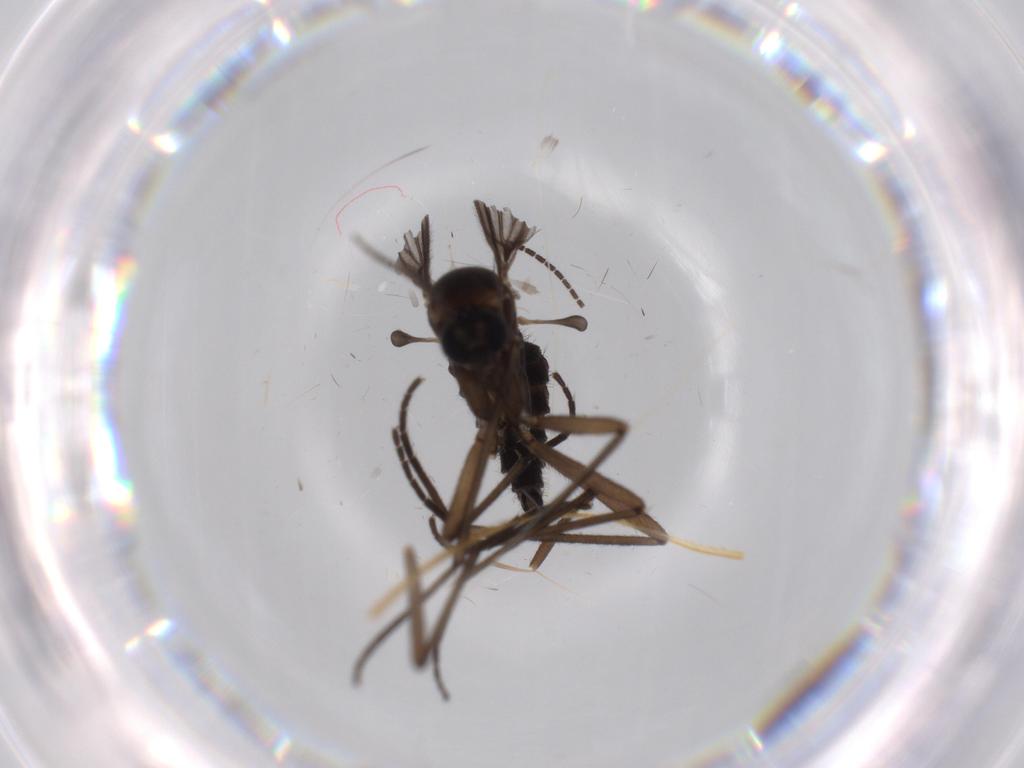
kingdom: Animalia
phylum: Arthropoda
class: Insecta
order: Diptera
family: Sciaridae
